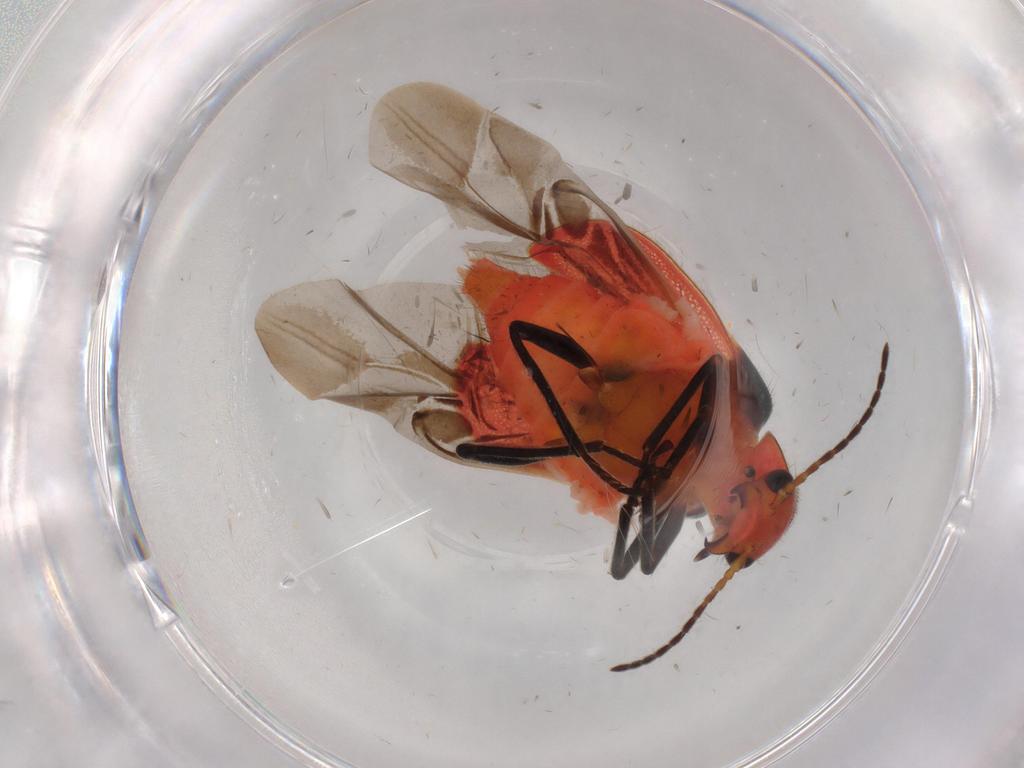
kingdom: Animalia
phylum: Arthropoda
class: Insecta
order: Coleoptera
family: Melyridae
